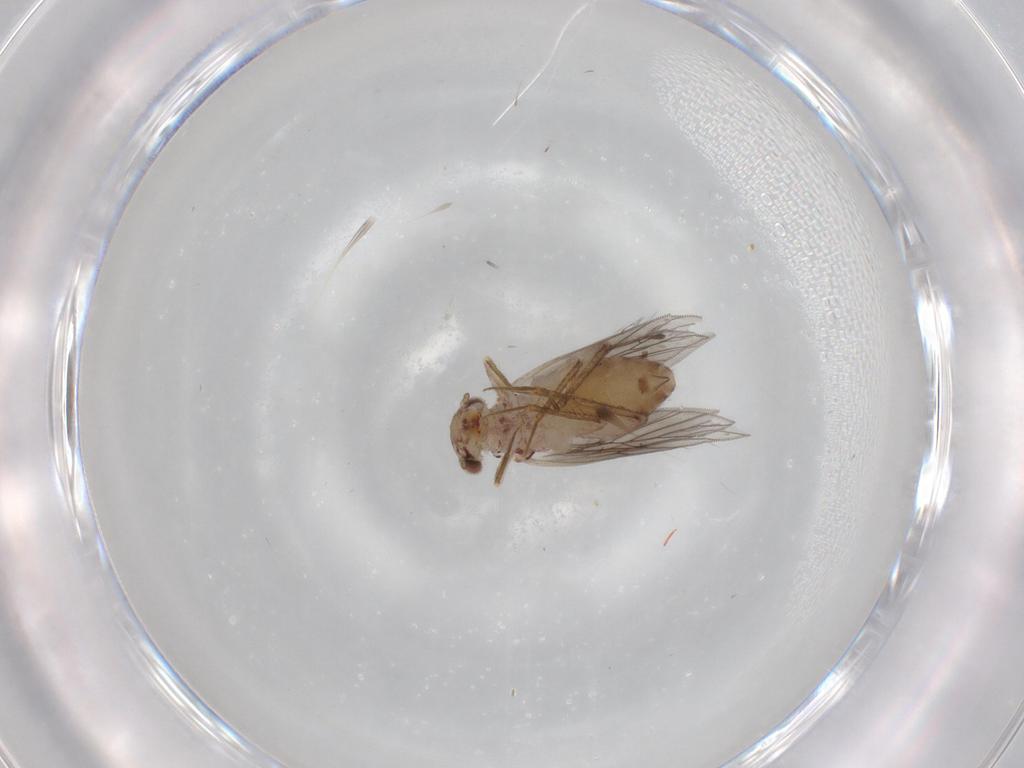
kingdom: Animalia
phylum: Arthropoda
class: Insecta
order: Psocodea
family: Lepidopsocidae
